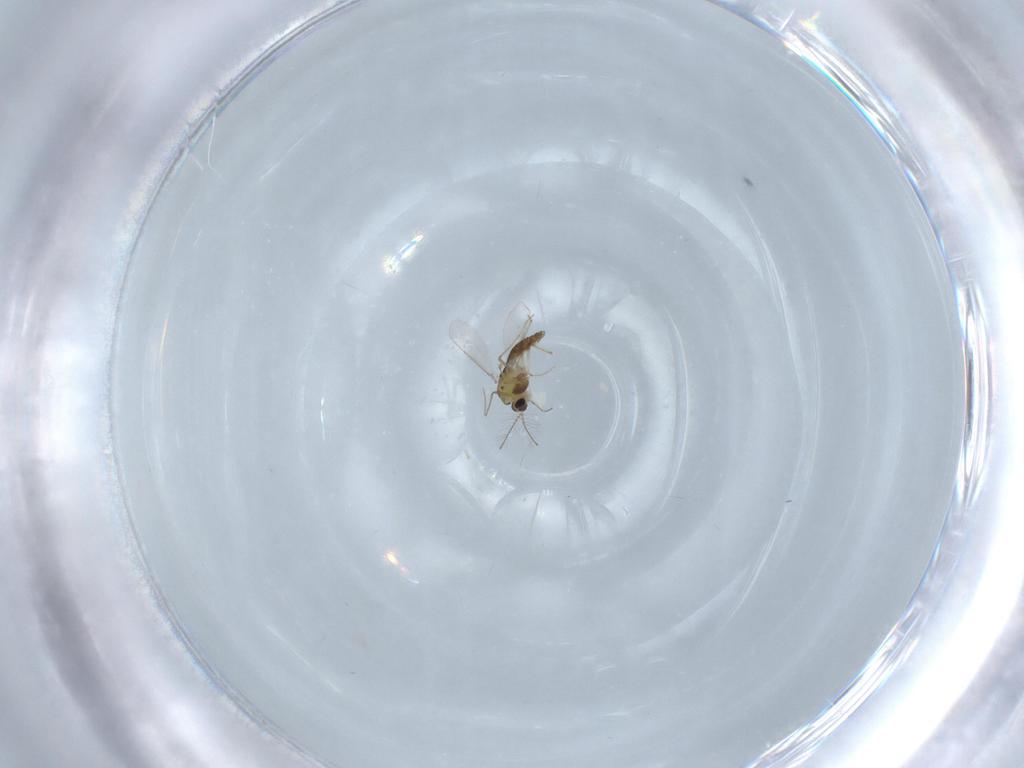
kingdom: Animalia
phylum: Arthropoda
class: Insecta
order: Diptera
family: Chironomidae
